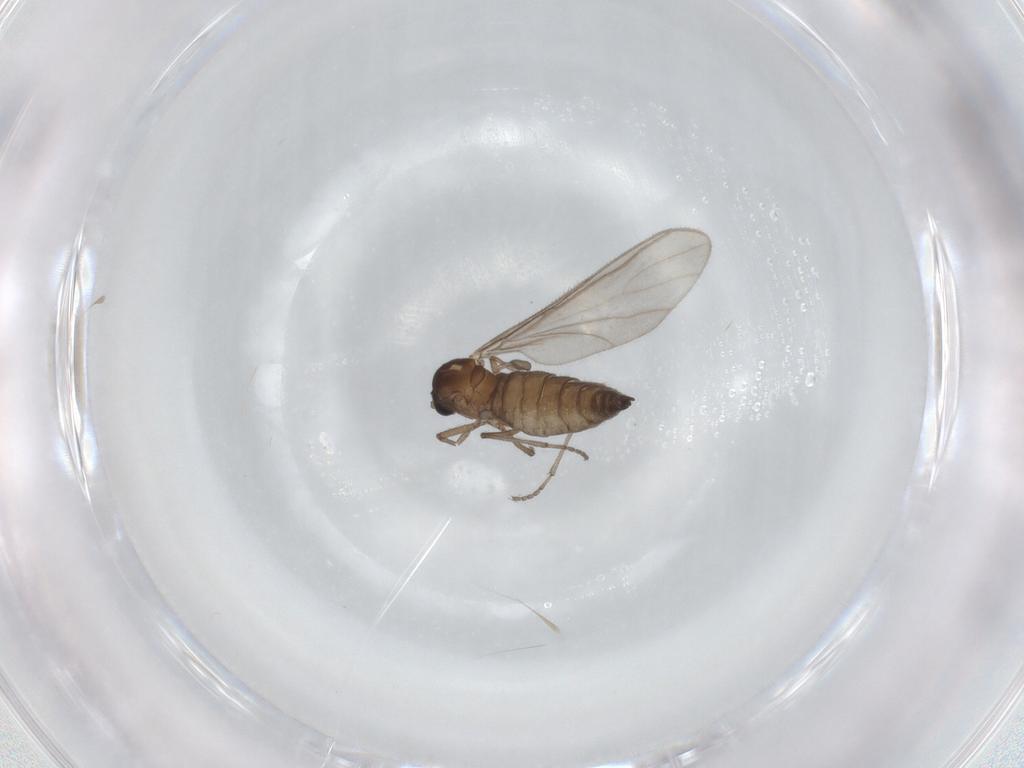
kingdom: Animalia
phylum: Arthropoda
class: Insecta
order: Diptera
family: Sciaridae
